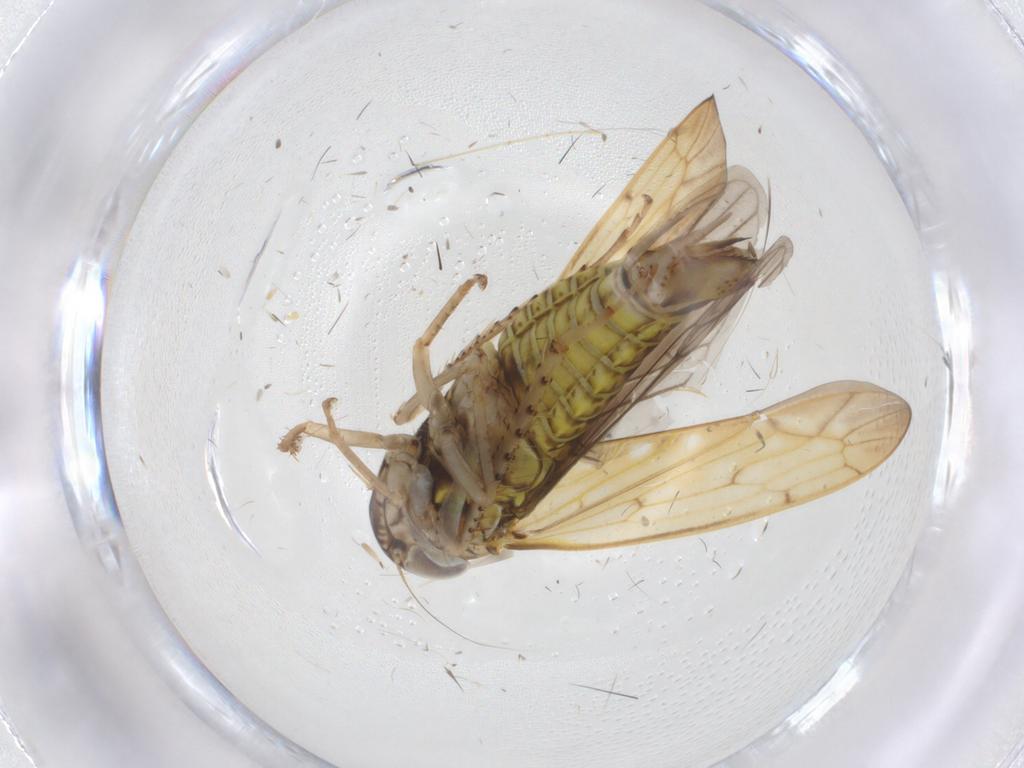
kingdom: Animalia
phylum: Arthropoda
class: Insecta
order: Hemiptera
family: Cicadellidae
